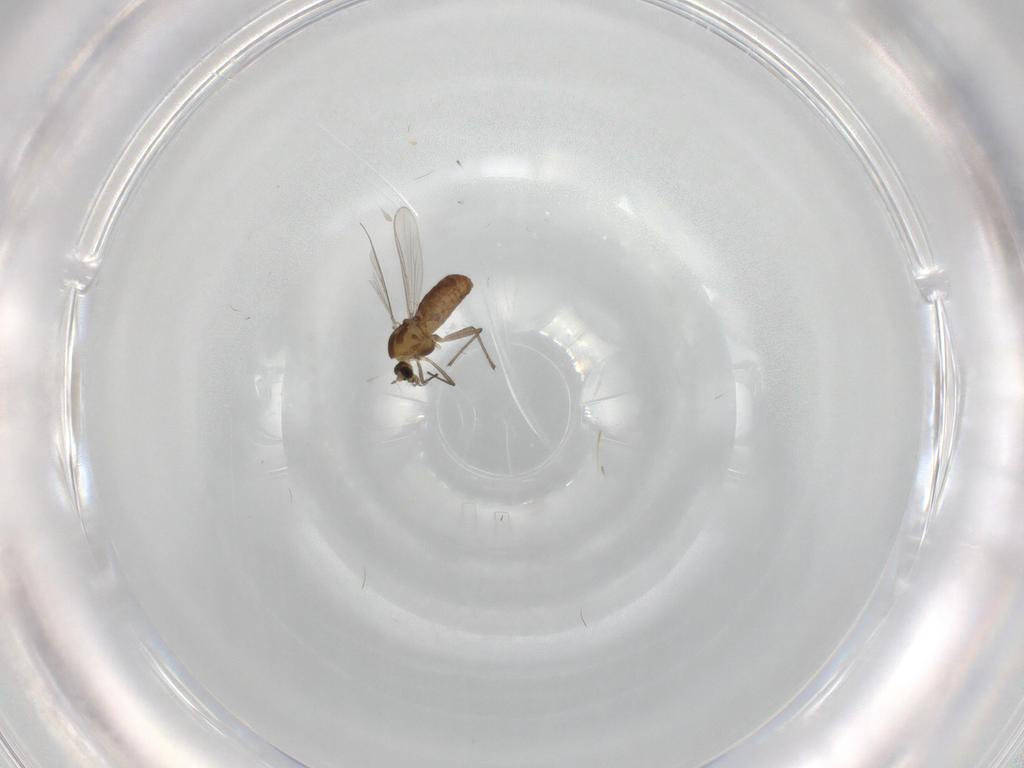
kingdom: Animalia
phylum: Arthropoda
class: Insecta
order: Diptera
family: Chironomidae
